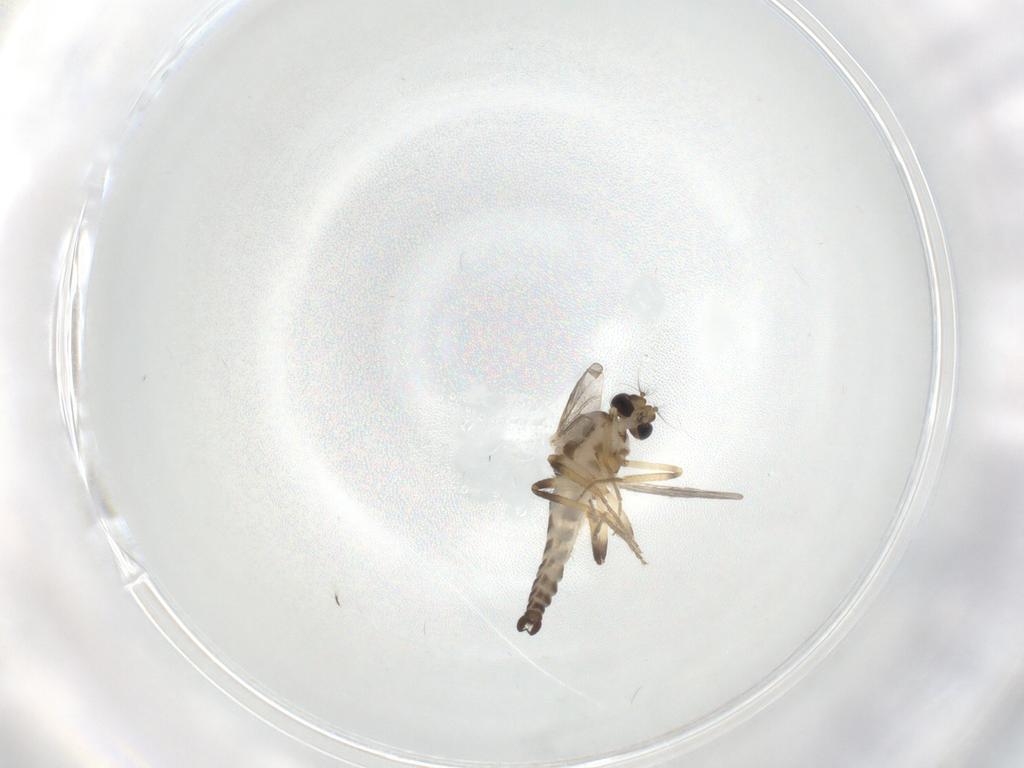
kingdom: Animalia
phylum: Arthropoda
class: Insecta
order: Diptera
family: Ceratopogonidae
